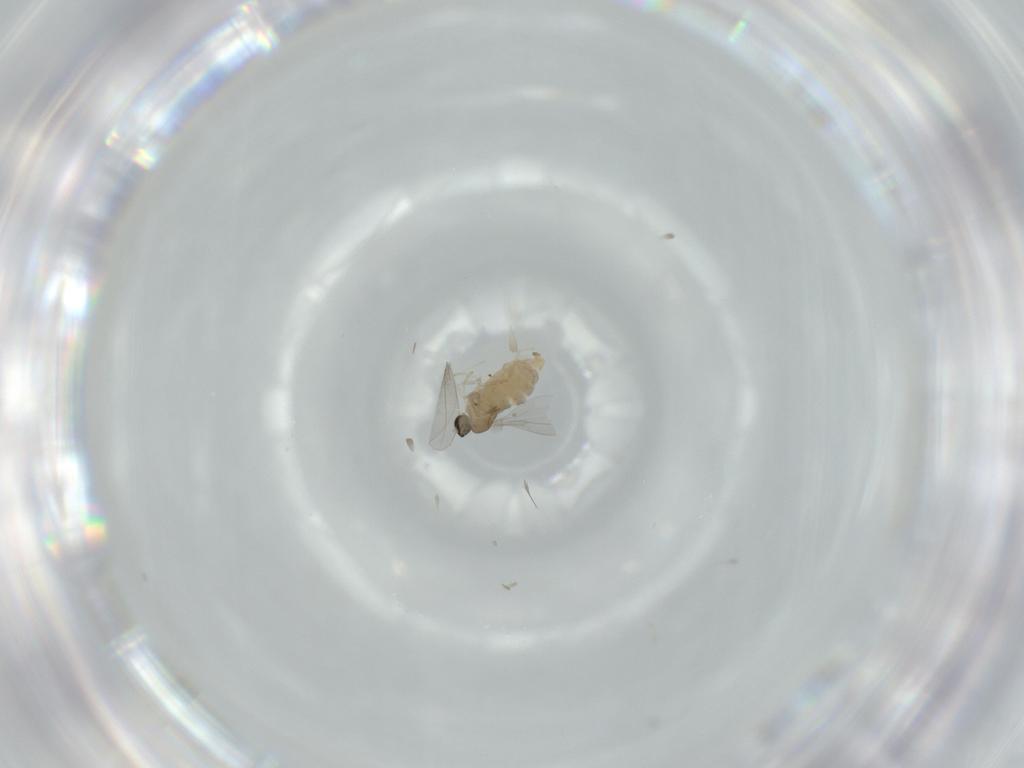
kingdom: Animalia
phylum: Arthropoda
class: Insecta
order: Diptera
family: Cecidomyiidae
